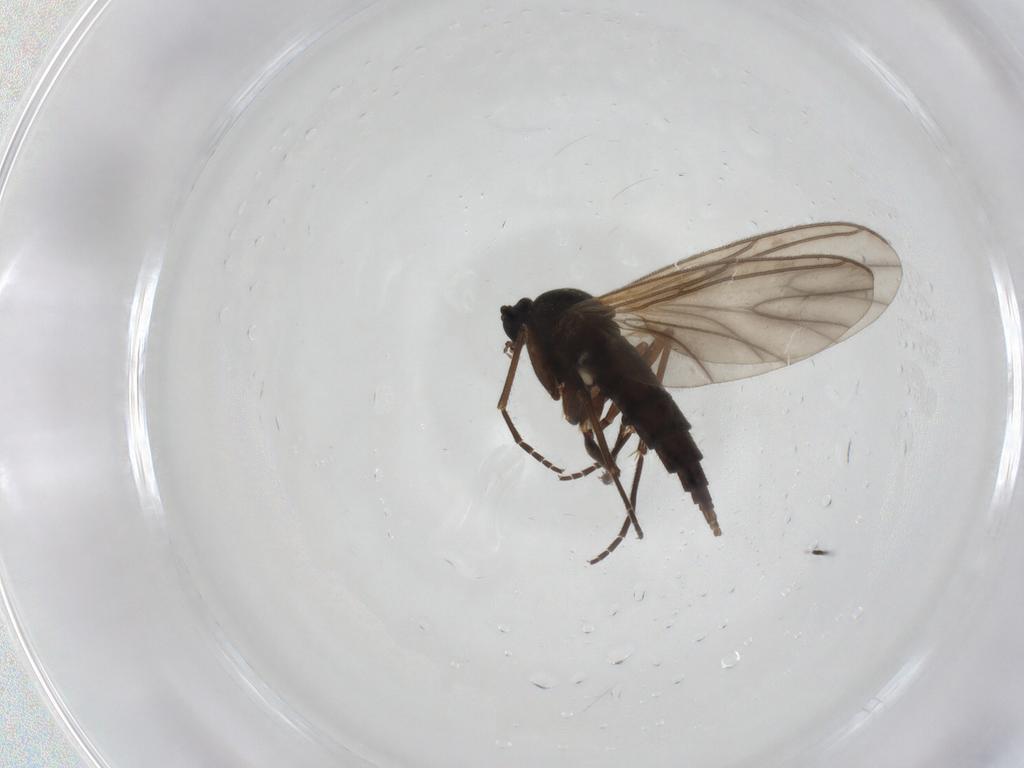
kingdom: Animalia
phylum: Arthropoda
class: Insecta
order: Diptera
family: Sciaridae
